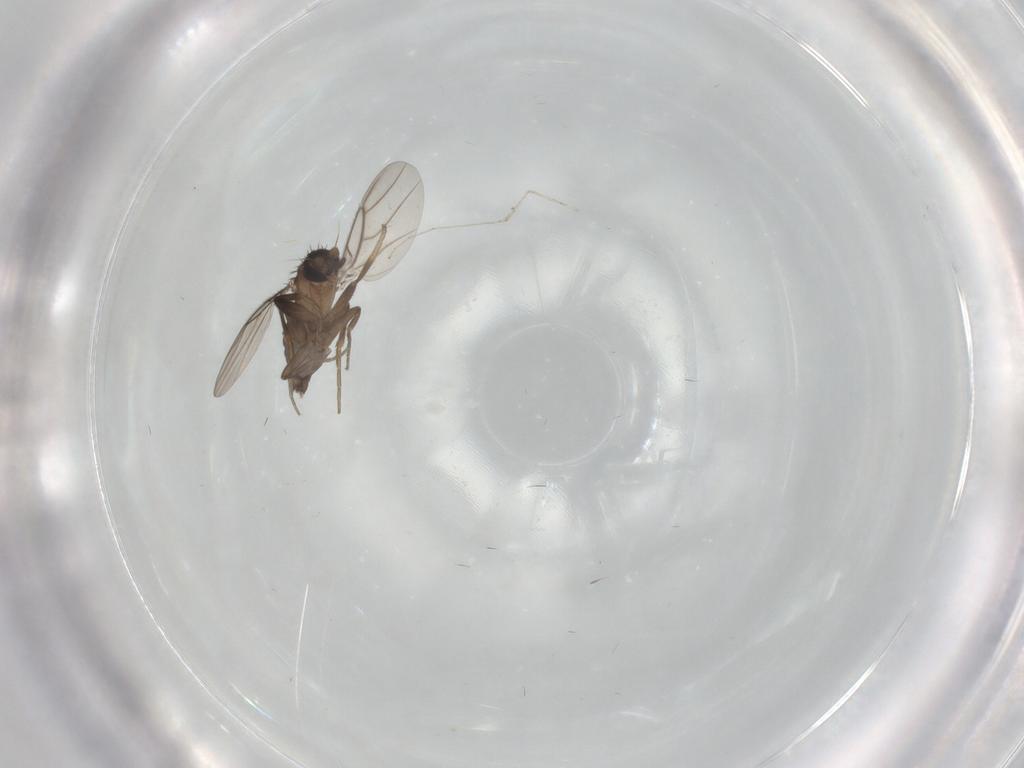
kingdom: Animalia
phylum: Arthropoda
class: Insecta
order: Diptera
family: Phoridae
